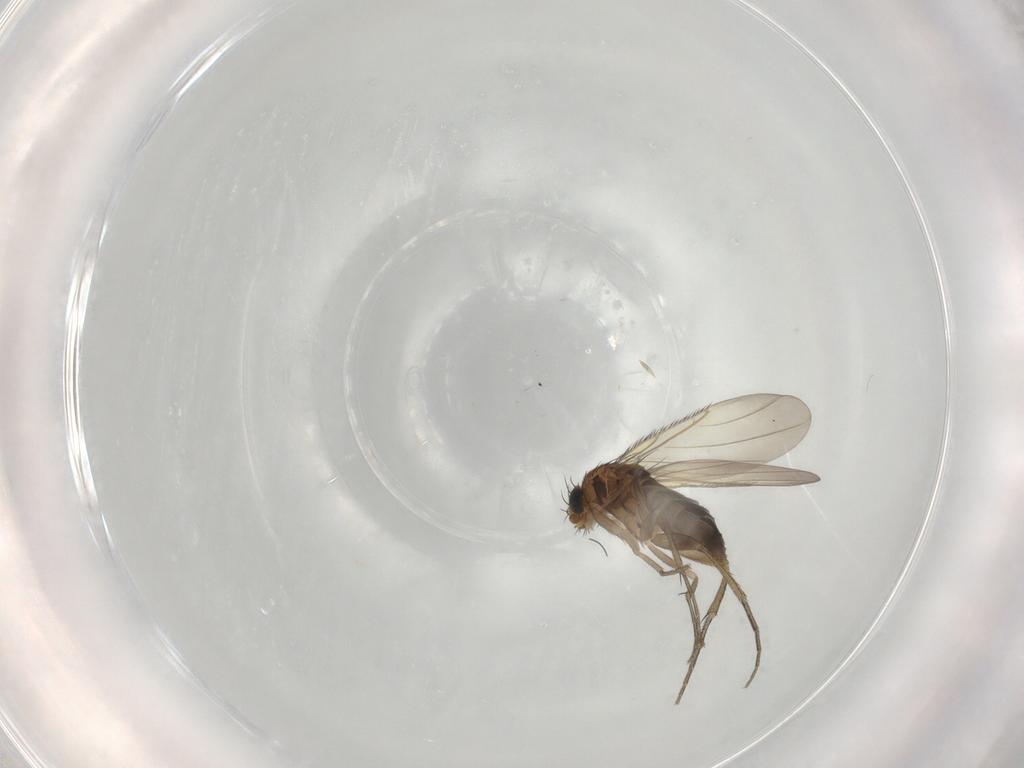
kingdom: Animalia
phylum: Arthropoda
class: Insecta
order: Diptera
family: Phoridae
